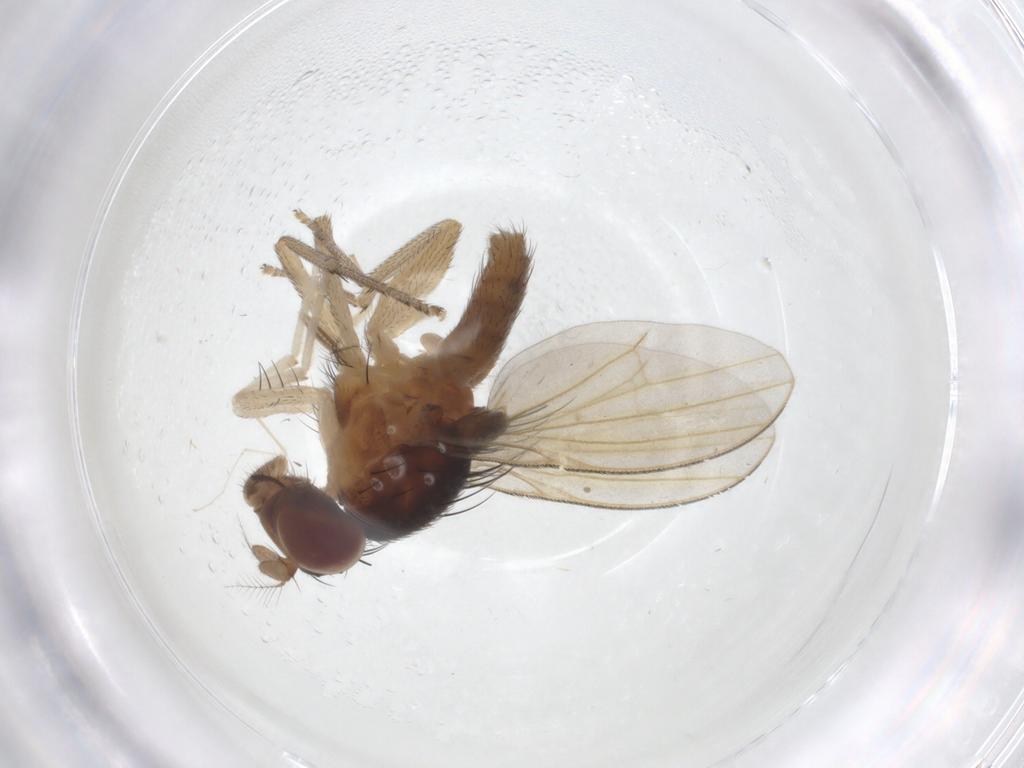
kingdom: Animalia
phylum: Arthropoda
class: Insecta
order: Diptera
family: Lauxaniidae
